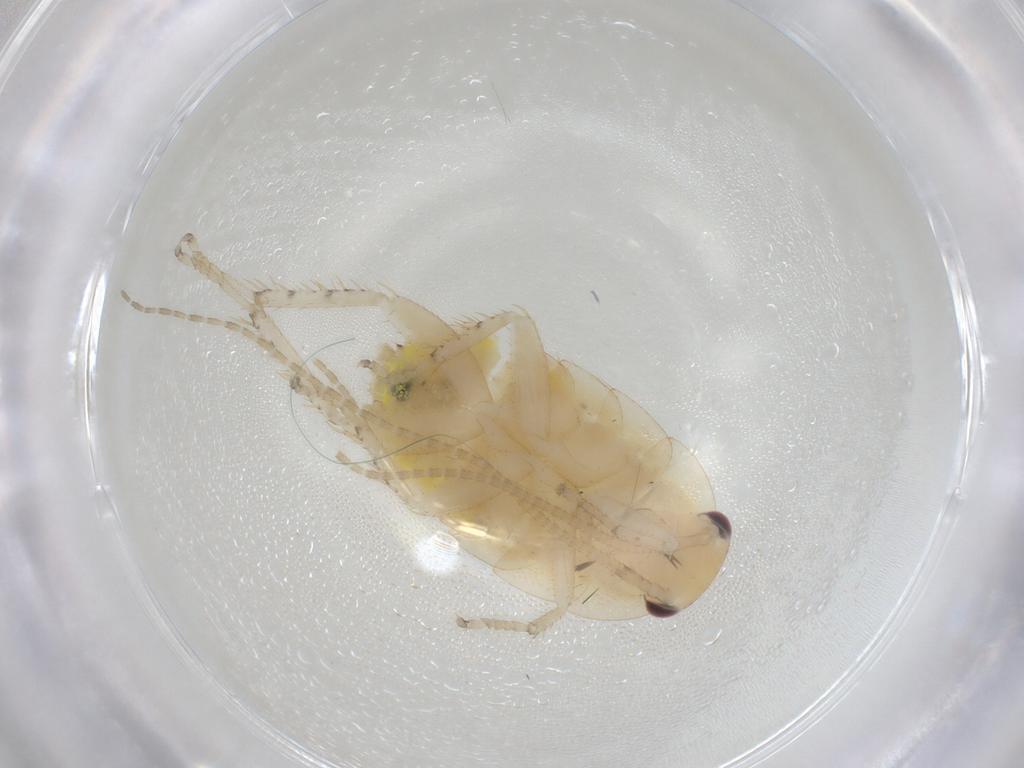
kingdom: Animalia
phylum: Arthropoda
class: Insecta
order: Blattodea
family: Ectobiidae
